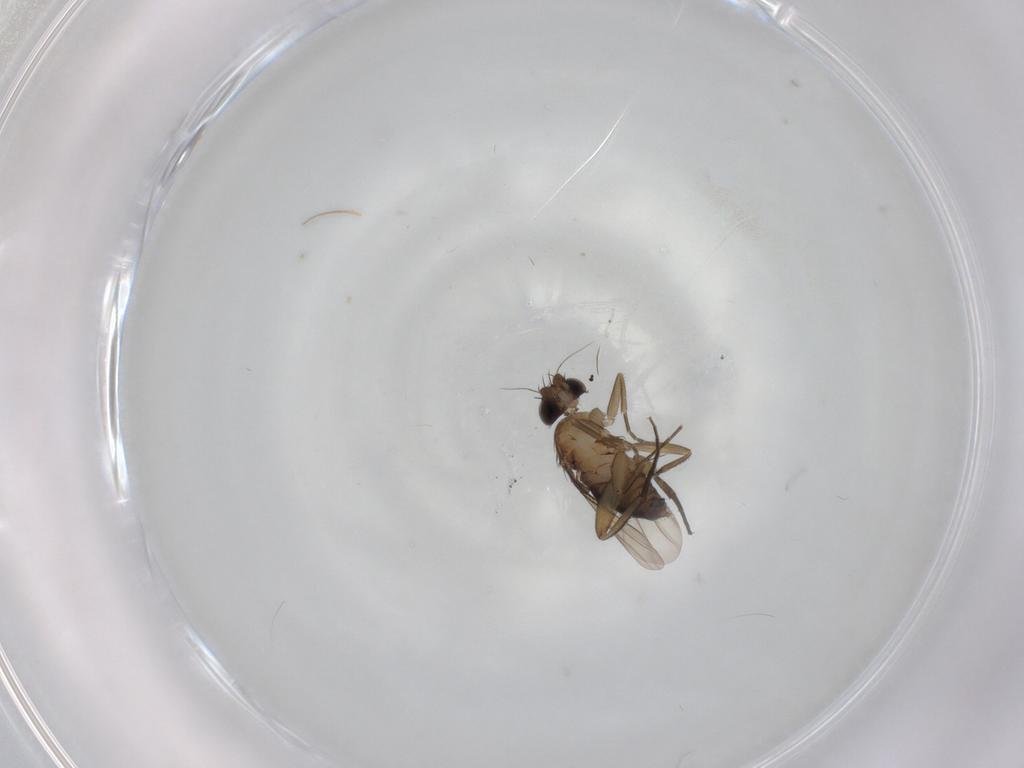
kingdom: Animalia
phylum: Arthropoda
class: Insecta
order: Diptera
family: Phoridae
